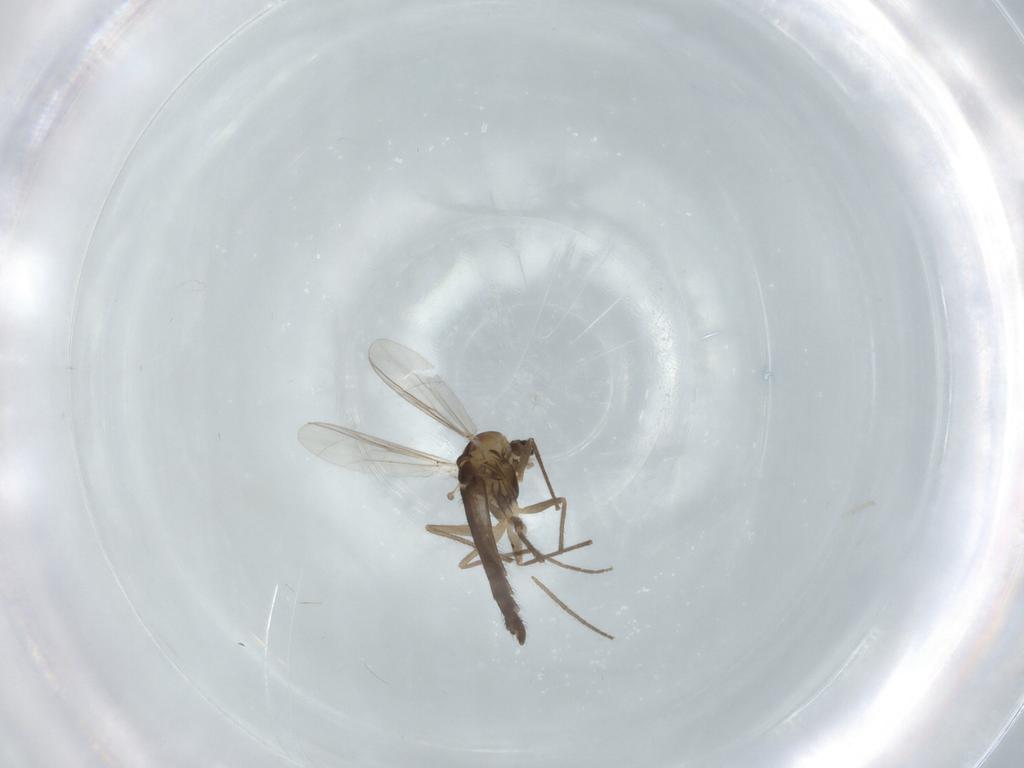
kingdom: Animalia
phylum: Arthropoda
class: Insecta
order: Diptera
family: Chironomidae
